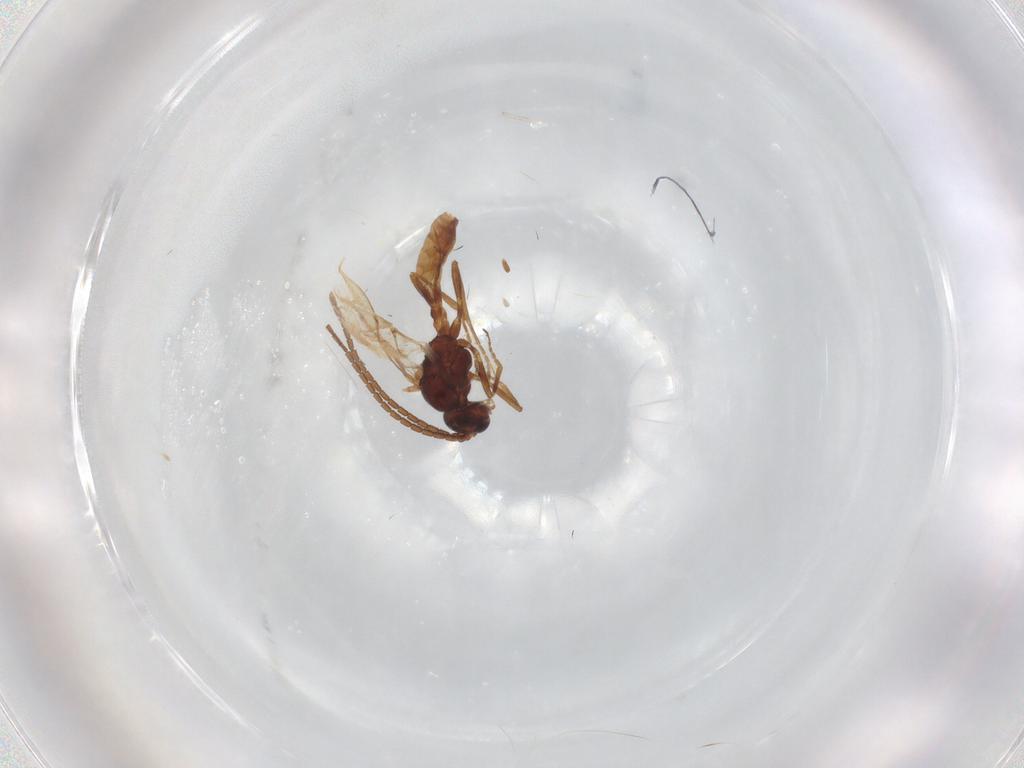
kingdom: Animalia
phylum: Arthropoda
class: Insecta
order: Hymenoptera
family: Braconidae
